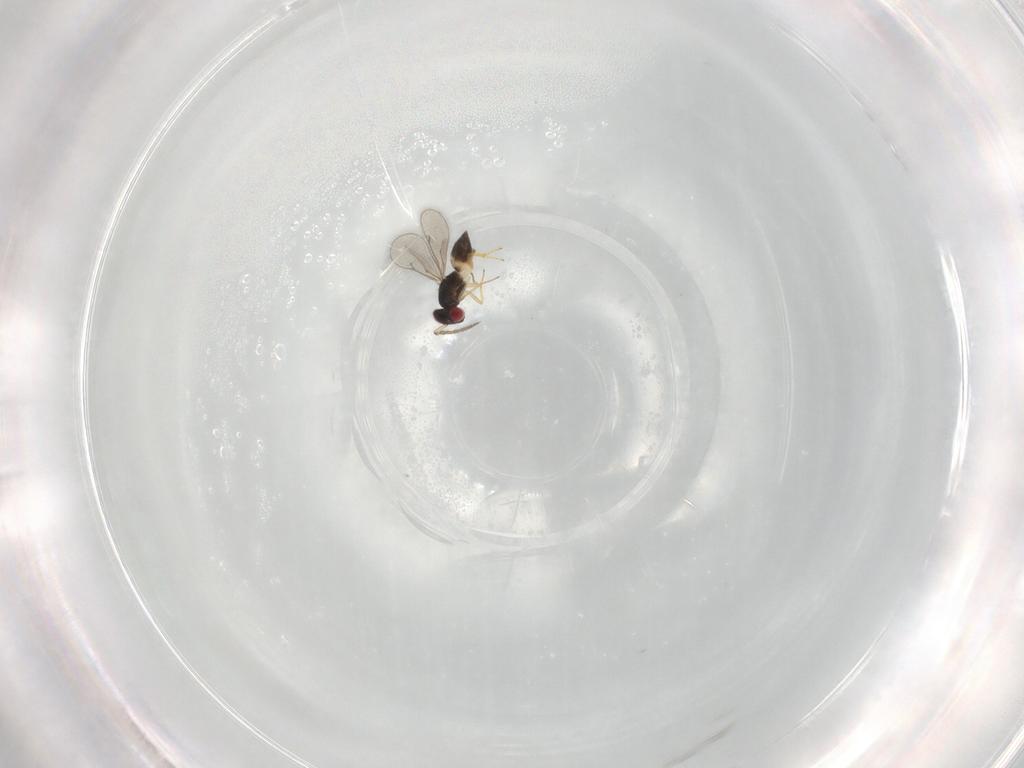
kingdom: Animalia
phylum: Arthropoda
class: Insecta
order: Hymenoptera
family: Eulophidae
